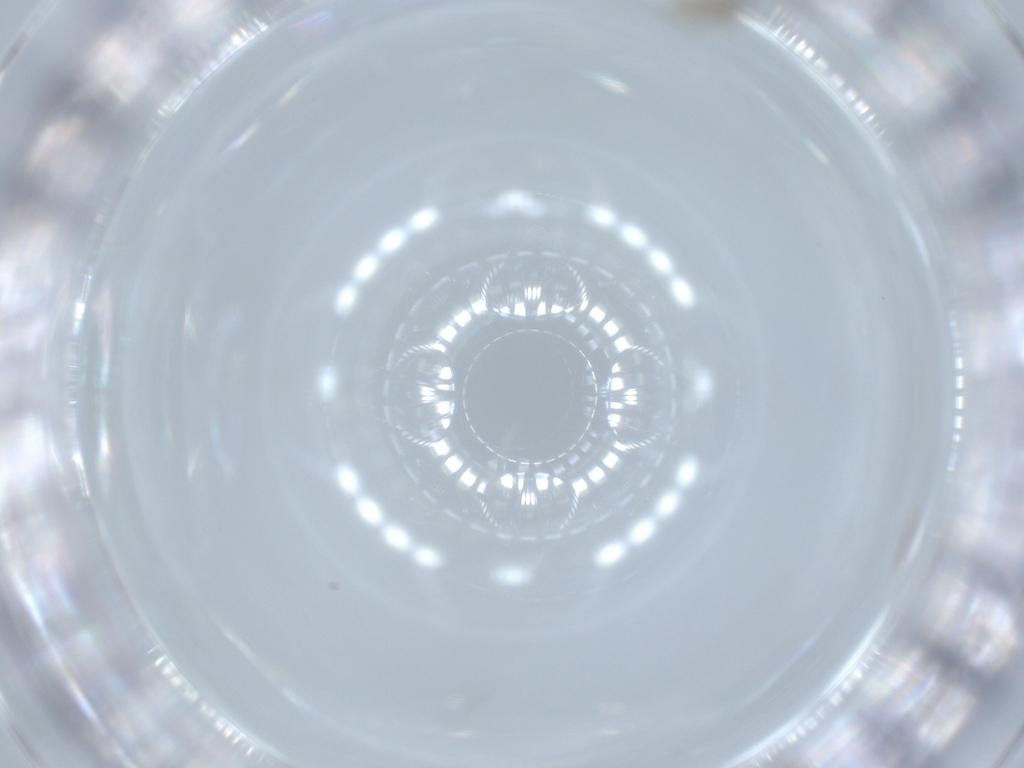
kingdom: Animalia
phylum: Arthropoda
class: Insecta
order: Diptera
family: Cecidomyiidae
